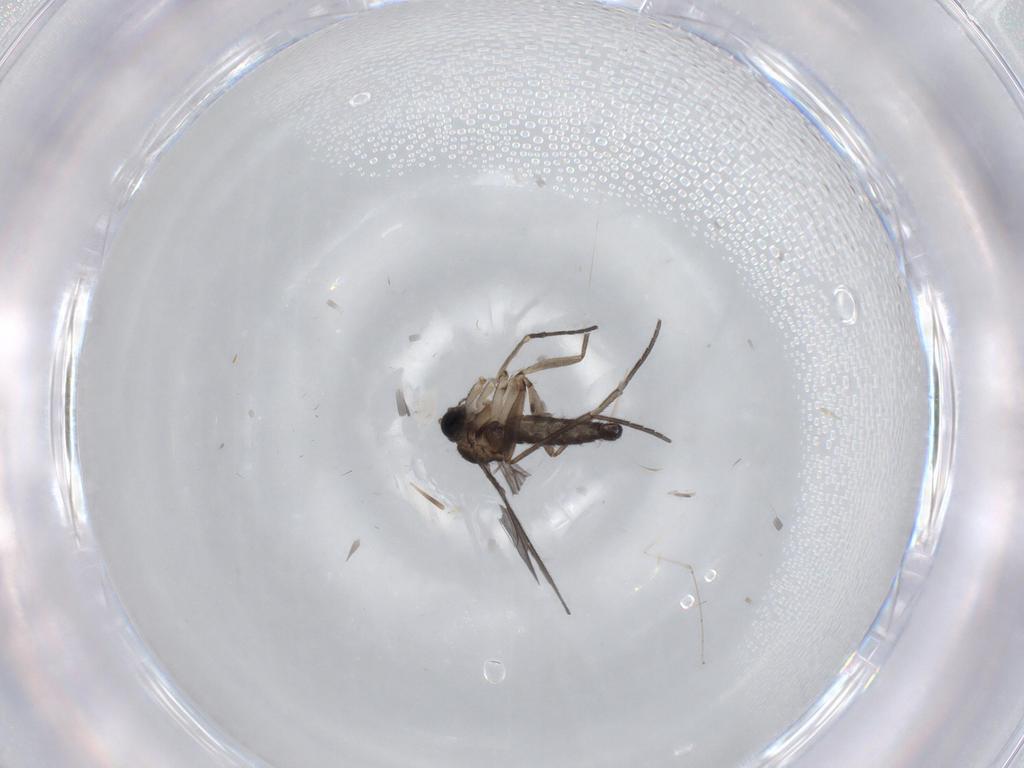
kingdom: Animalia
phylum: Arthropoda
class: Insecta
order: Diptera
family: Sciaridae
